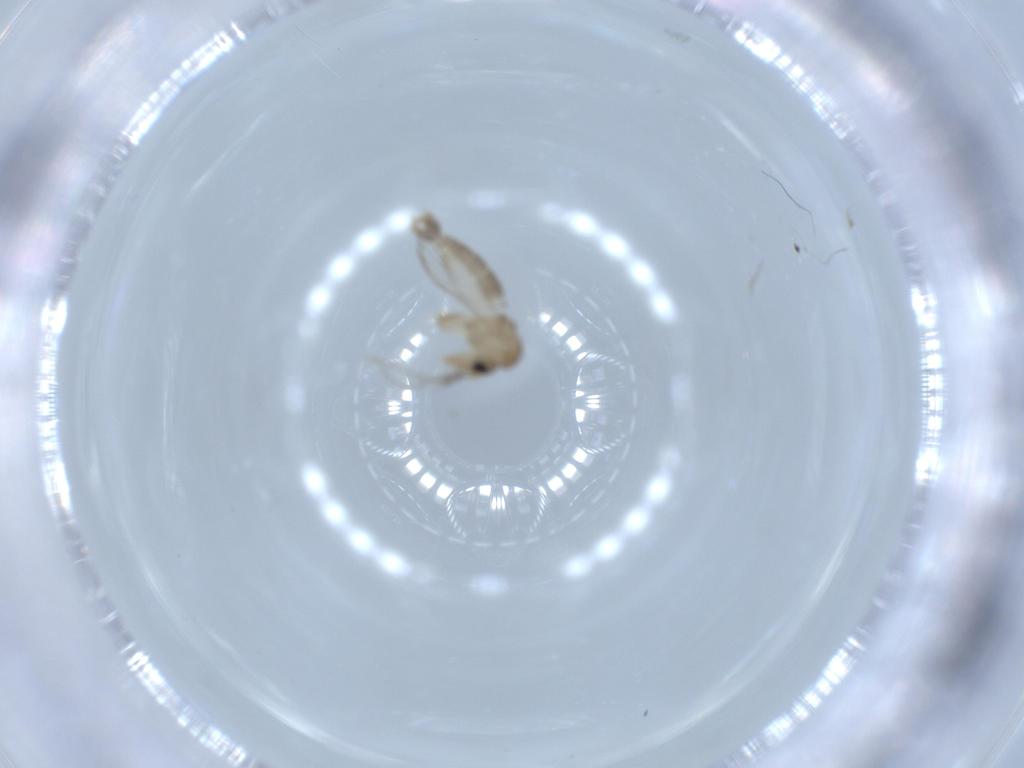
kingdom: Animalia
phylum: Arthropoda
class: Insecta
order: Diptera
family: Psychodidae
